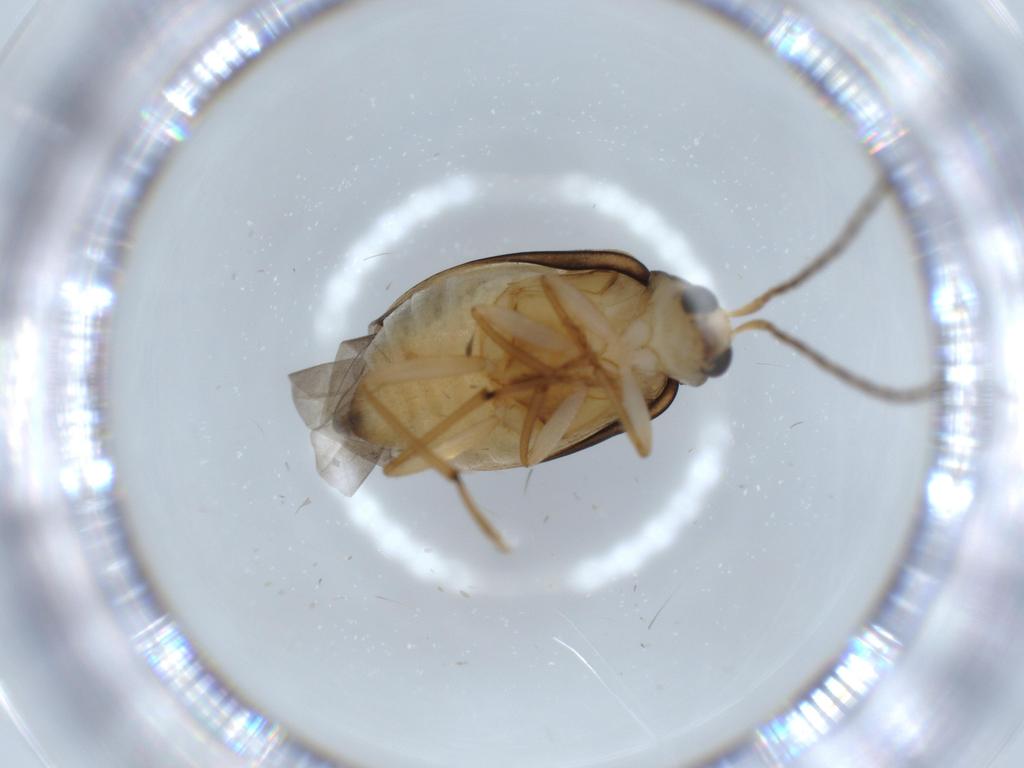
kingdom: Animalia
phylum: Arthropoda
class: Insecta
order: Coleoptera
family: Chrysomelidae
